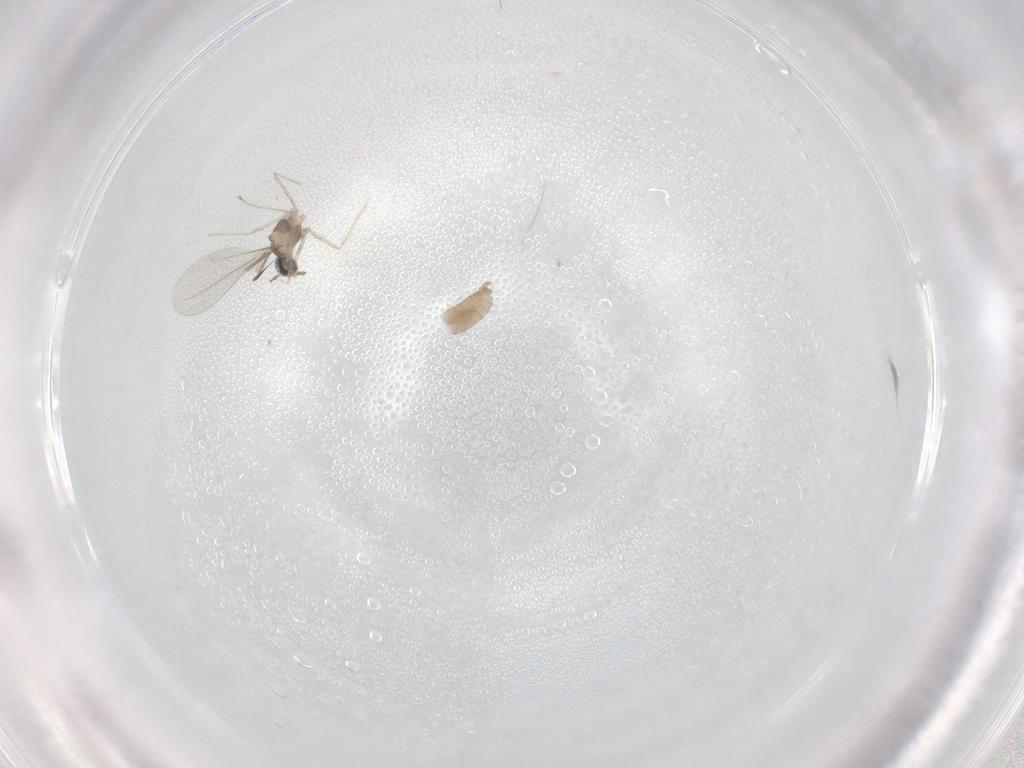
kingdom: Animalia
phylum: Arthropoda
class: Insecta
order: Diptera
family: Cecidomyiidae
